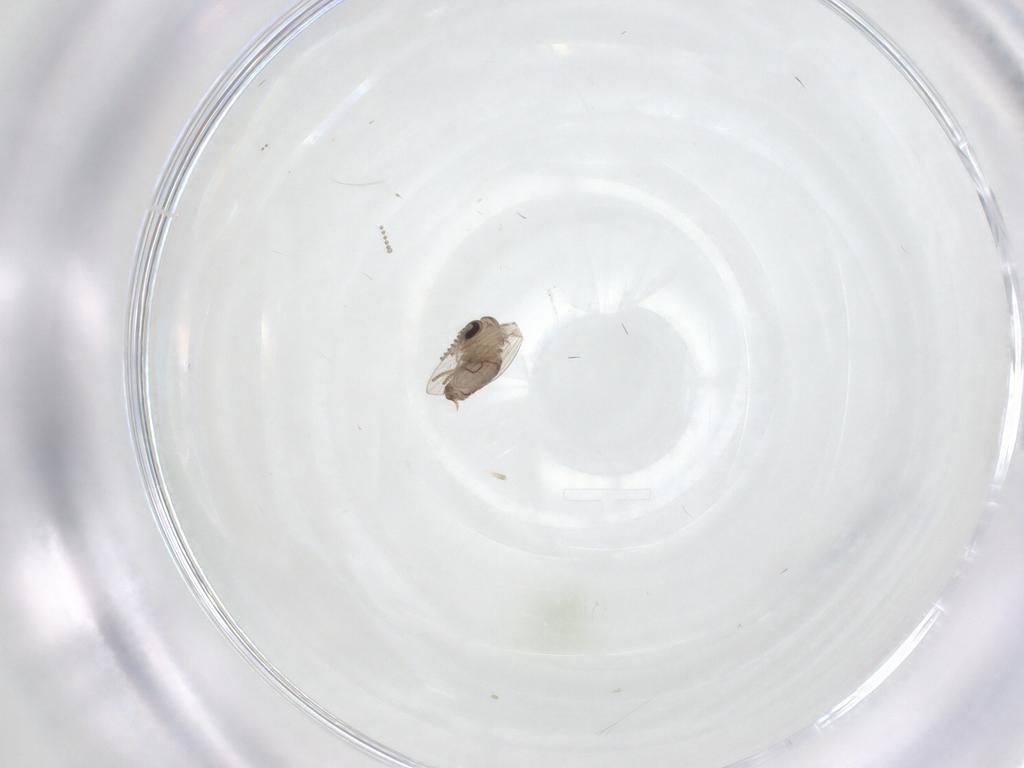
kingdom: Animalia
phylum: Arthropoda
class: Insecta
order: Diptera
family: Psychodidae
